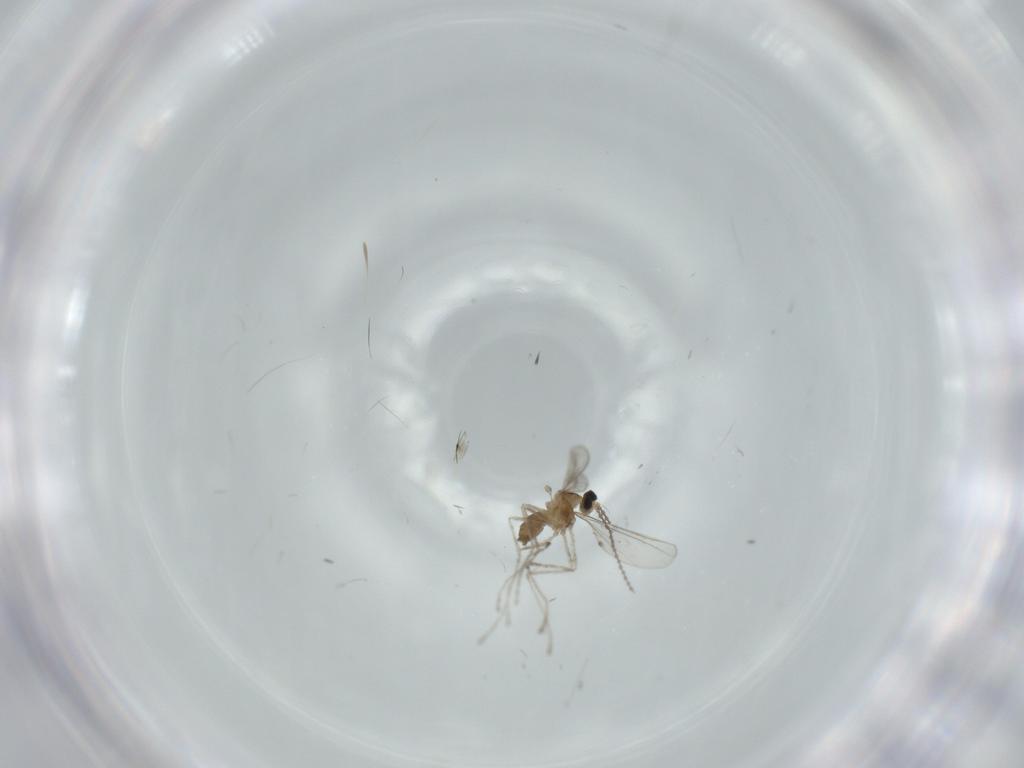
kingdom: Animalia
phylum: Arthropoda
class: Insecta
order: Diptera
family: Cecidomyiidae
